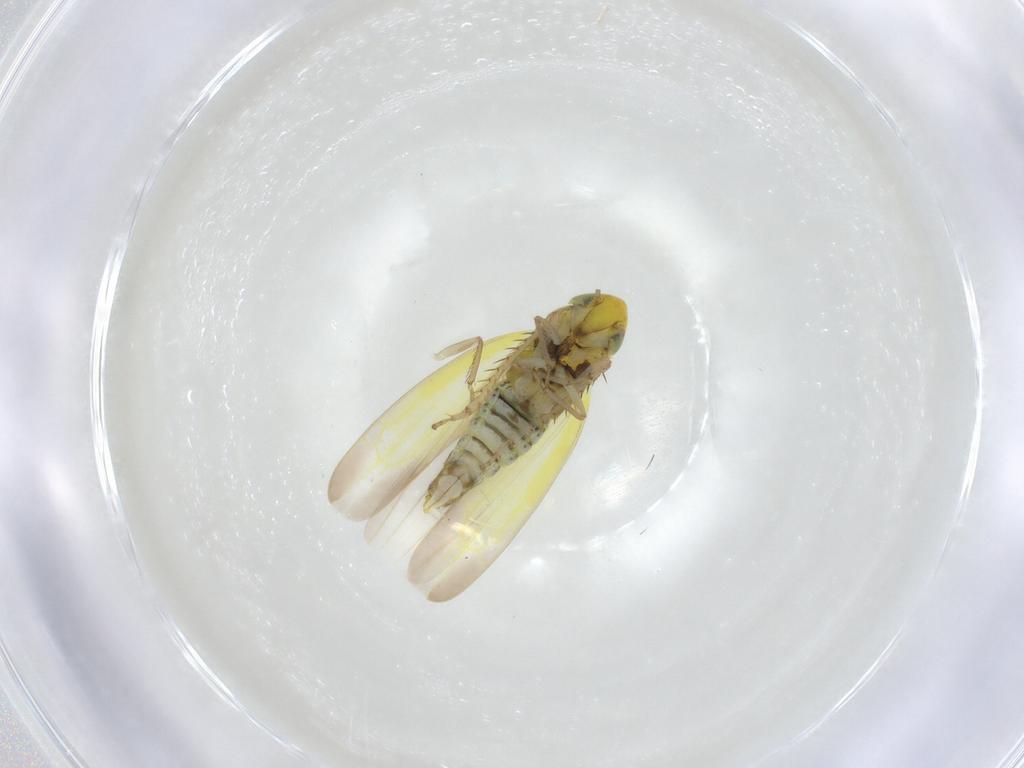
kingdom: Animalia
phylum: Arthropoda
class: Insecta
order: Hemiptera
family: Cicadellidae
